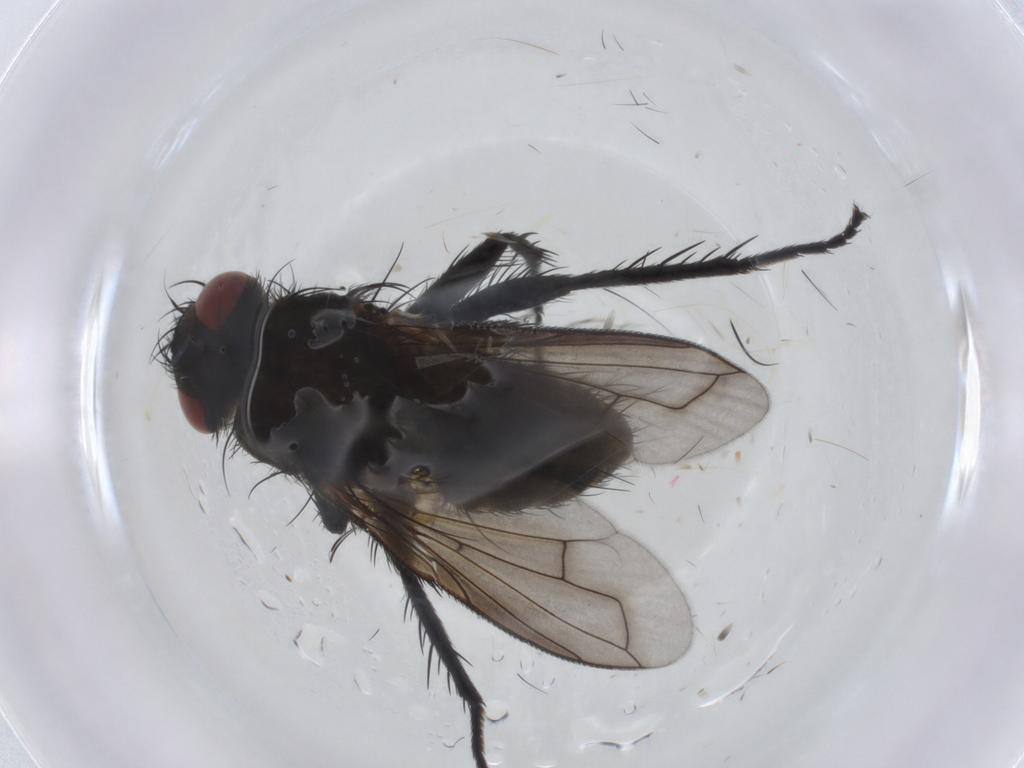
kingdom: Animalia
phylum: Arthropoda
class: Insecta
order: Diptera
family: Tachinidae
